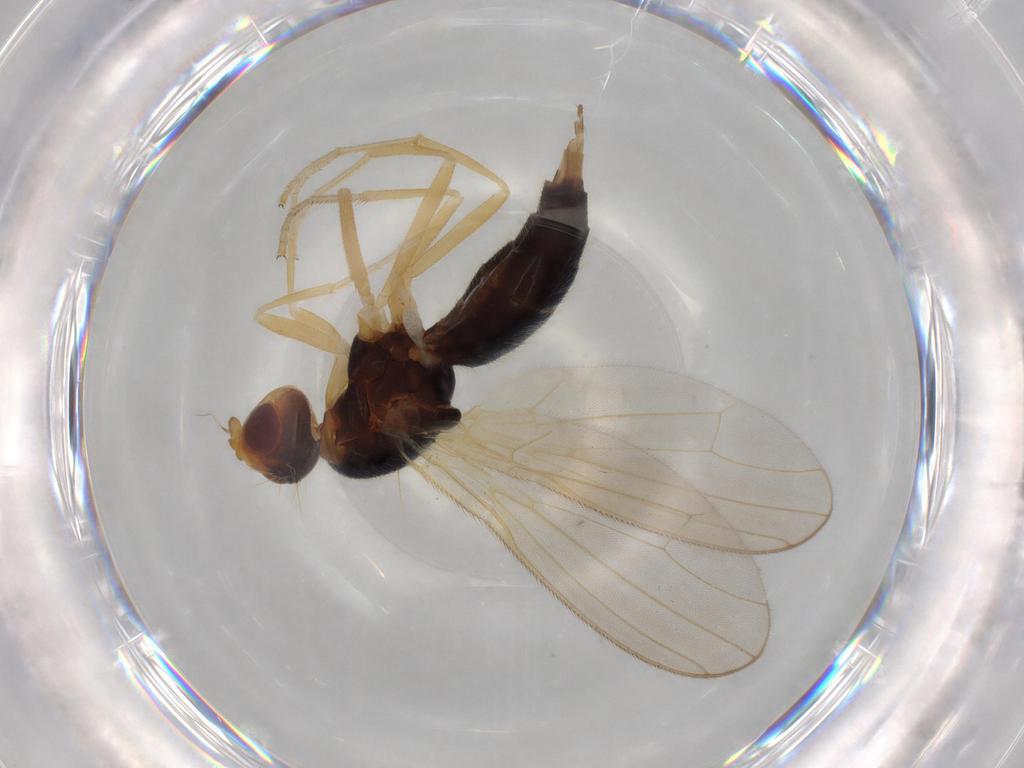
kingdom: Animalia
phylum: Arthropoda
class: Insecta
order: Diptera
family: Psilidae
